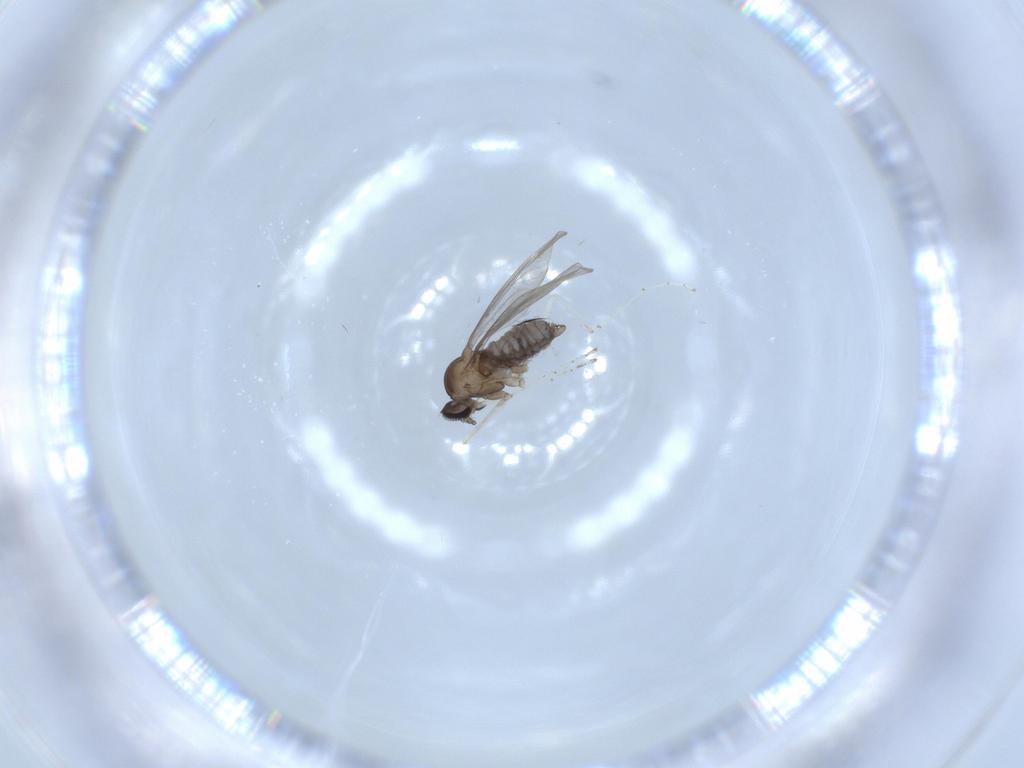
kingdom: Animalia
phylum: Arthropoda
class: Insecta
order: Diptera
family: Cecidomyiidae
